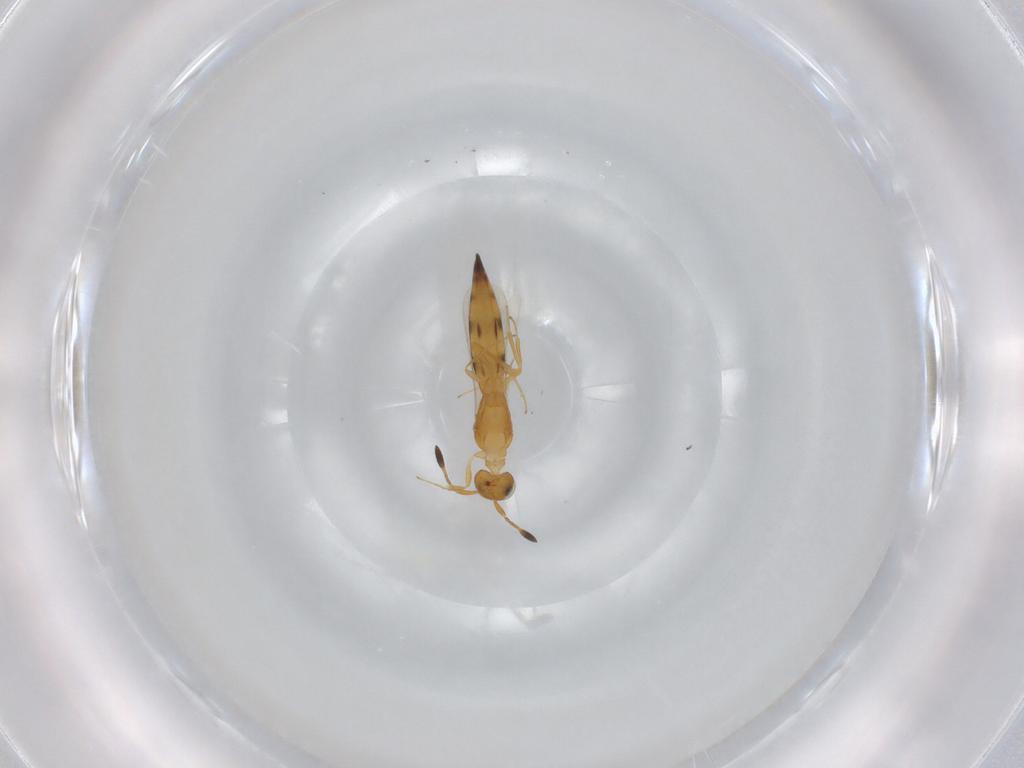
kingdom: Animalia
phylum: Arthropoda
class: Insecta
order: Hymenoptera
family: Scelionidae
